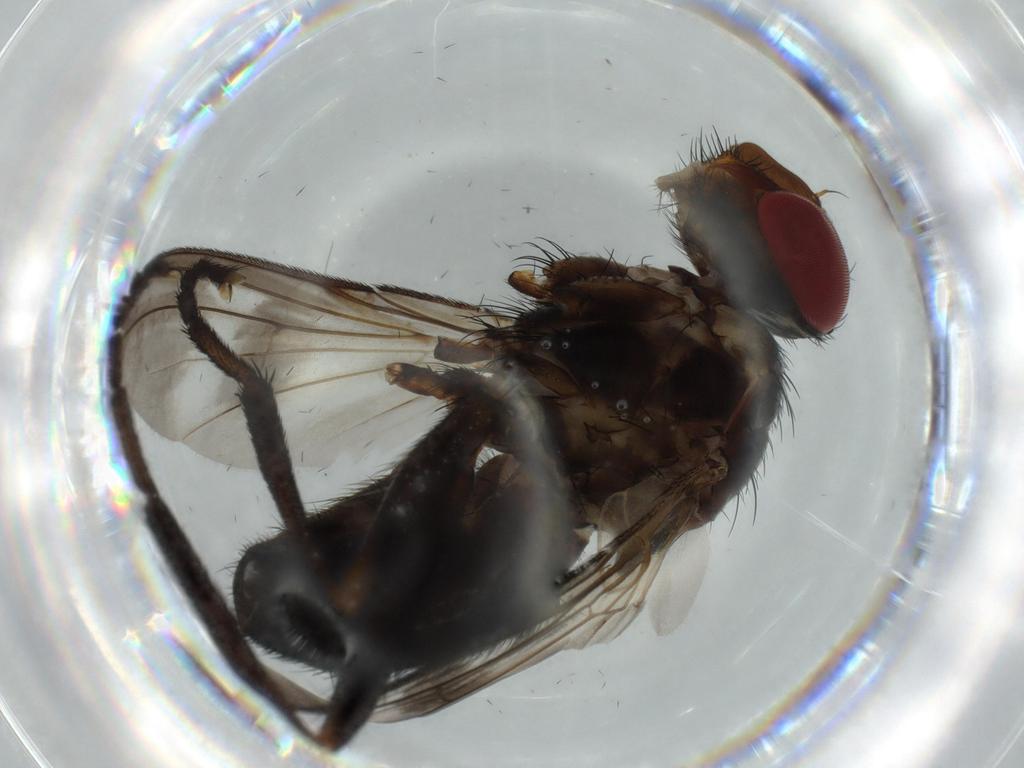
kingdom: Animalia
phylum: Arthropoda
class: Insecta
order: Diptera
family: Calliphoridae
